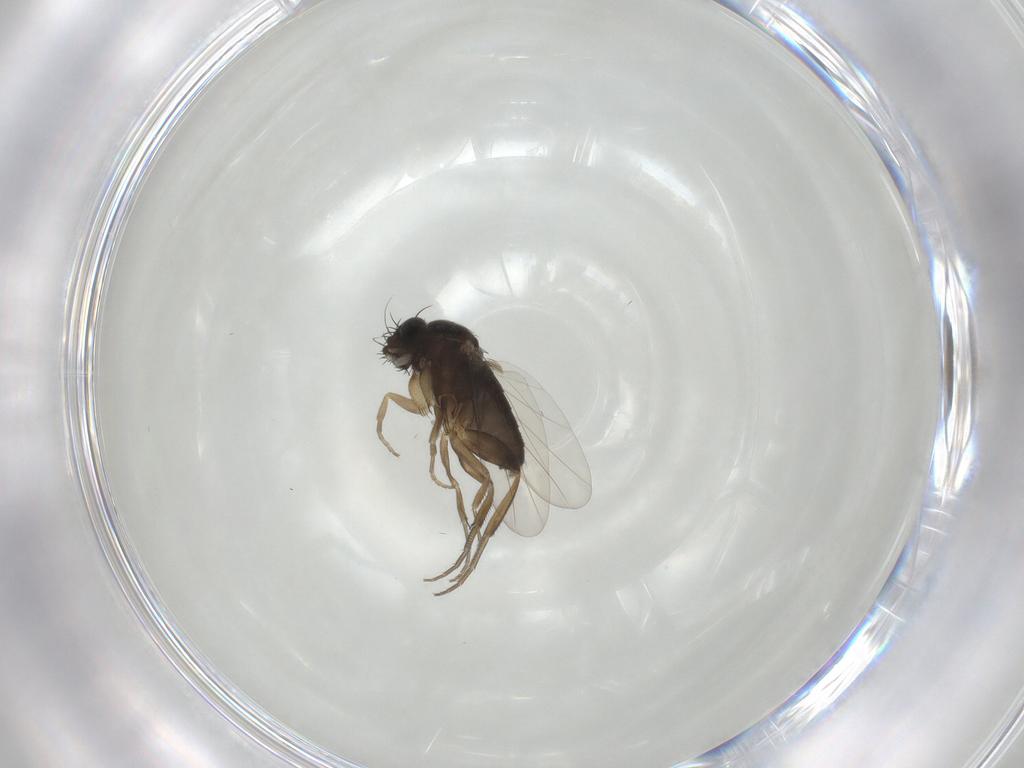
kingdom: Animalia
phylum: Arthropoda
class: Insecta
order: Diptera
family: Phoridae
